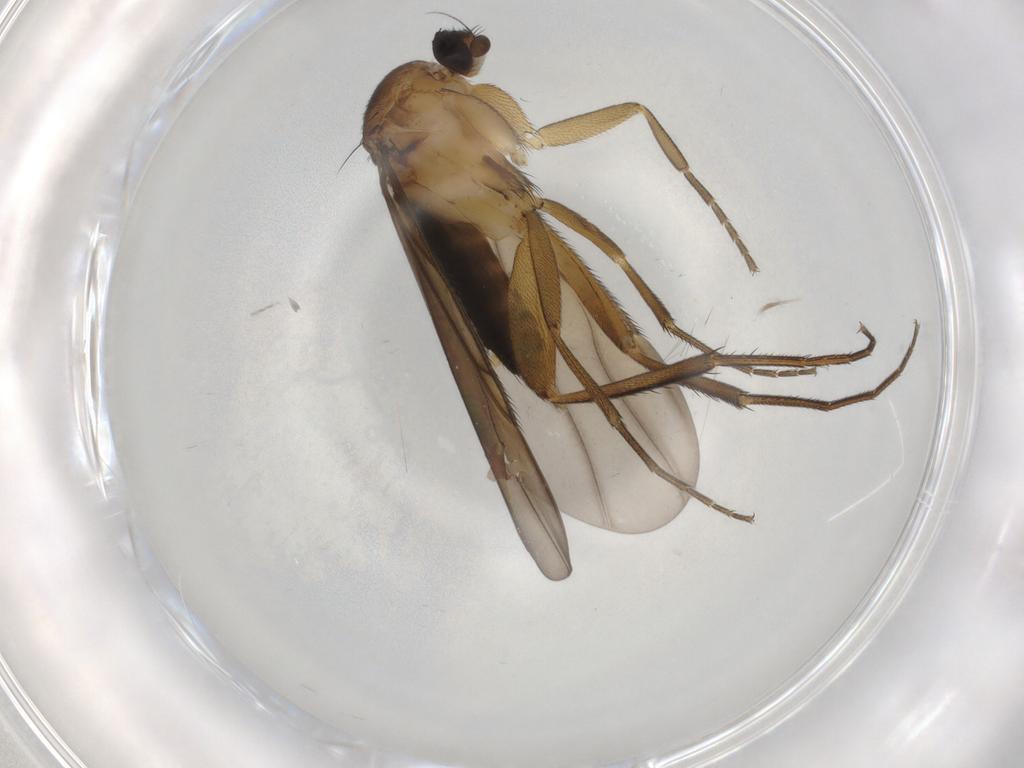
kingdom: Animalia
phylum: Arthropoda
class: Insecta
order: Diptera
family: Phoridae
